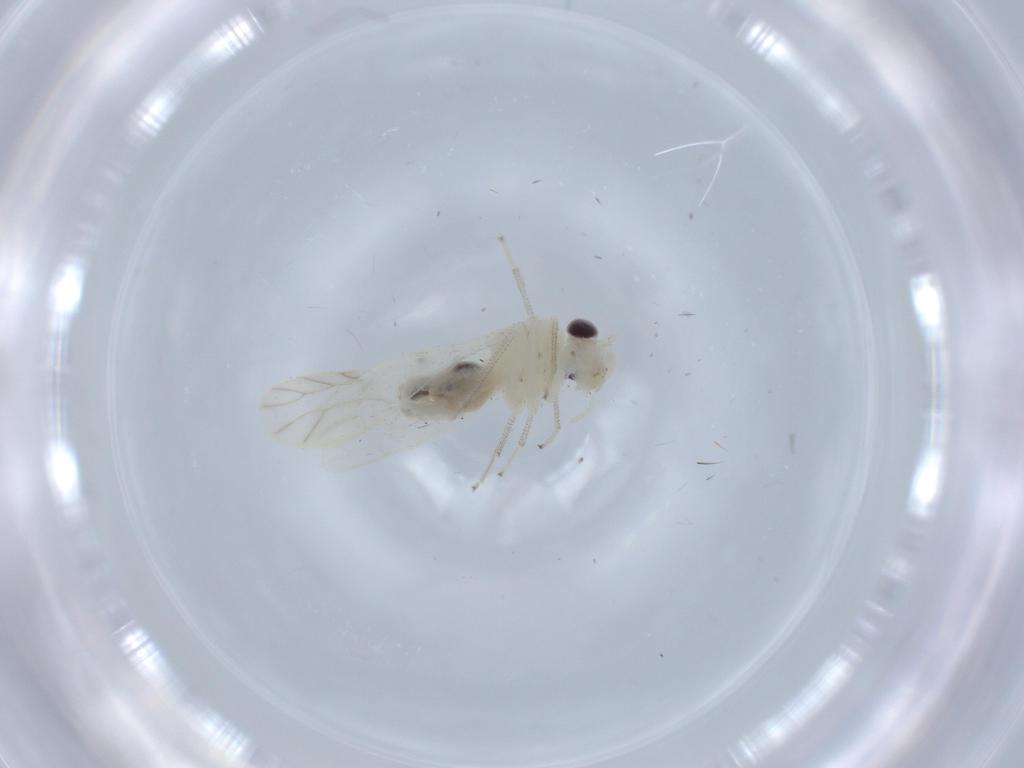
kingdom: Animalia
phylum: Arthropoda
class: Insecta
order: Psocodea
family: Caeciliusidae
